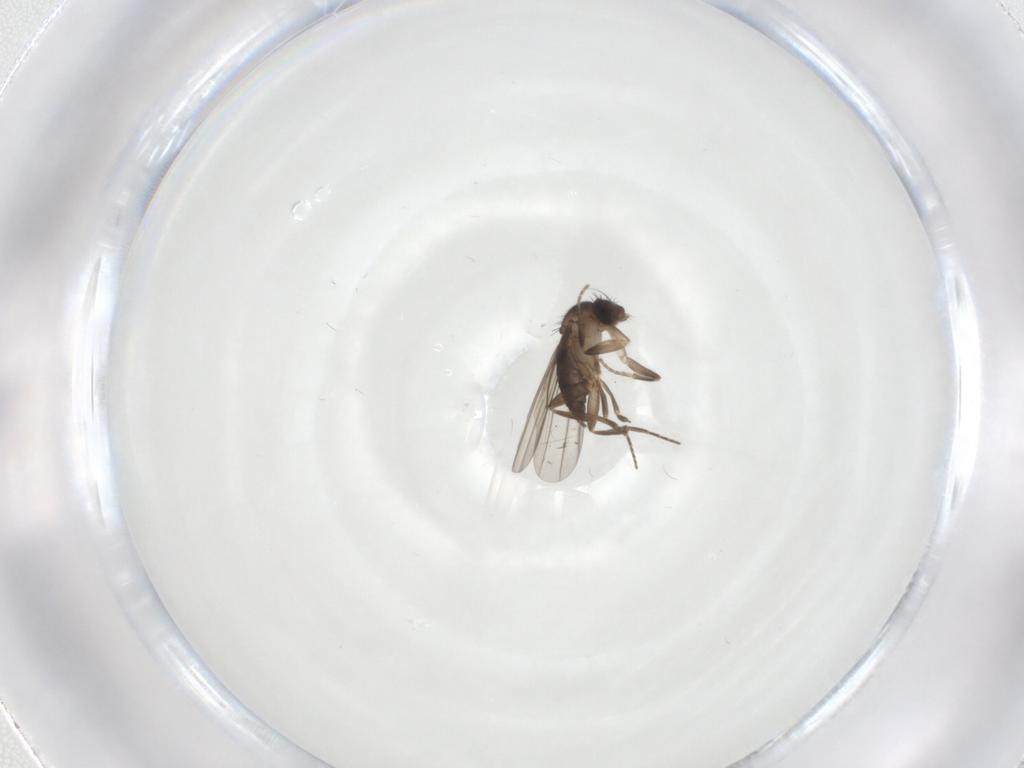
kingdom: Animalia
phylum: Arthropoda
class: Insecta
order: Diptera
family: Phoridae
